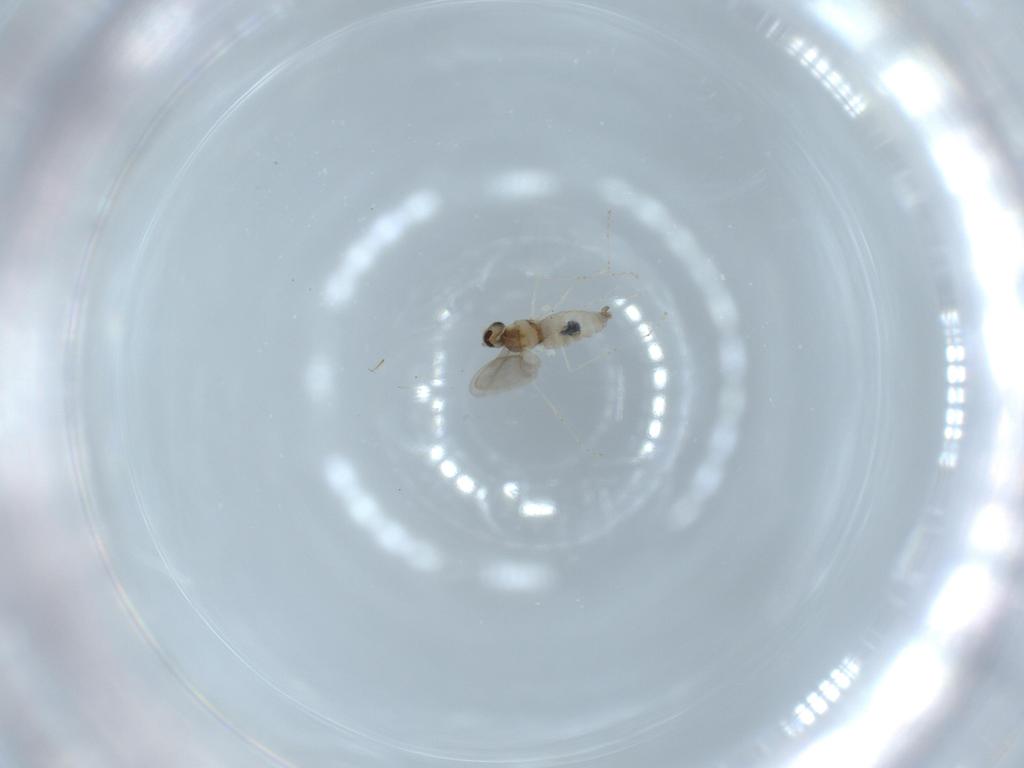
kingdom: Animalia
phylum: Arthropoda
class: Insecta
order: Diptera
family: Cecidomyiidae
